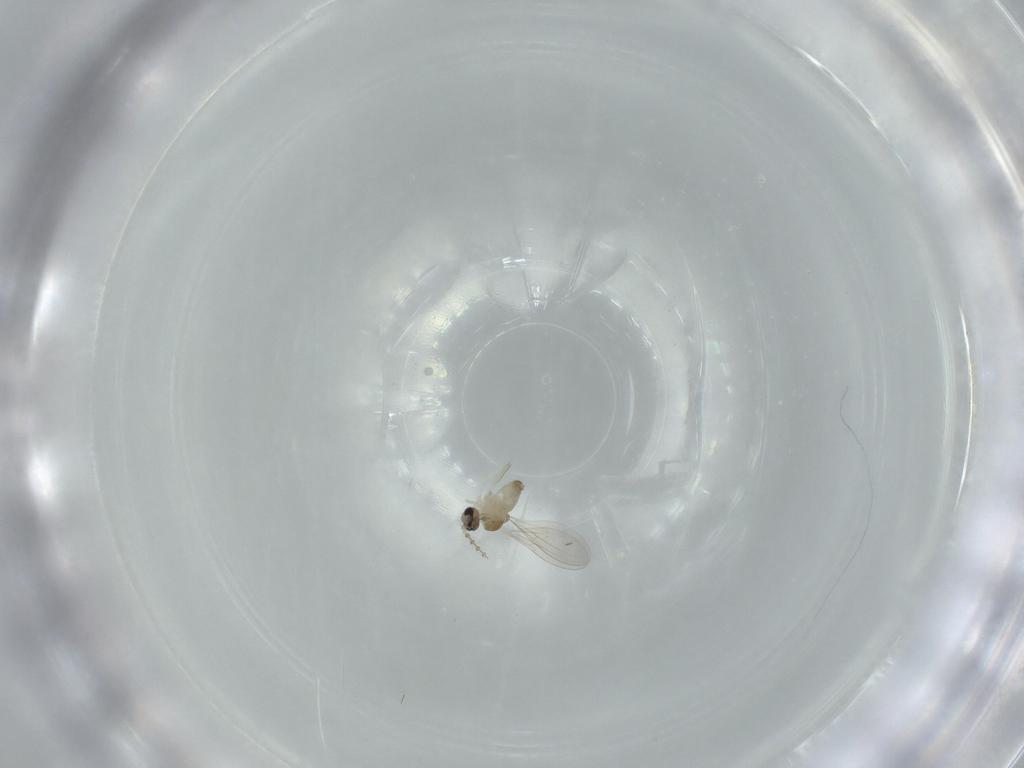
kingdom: Animalia
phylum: Arthropoda
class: Insecta
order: Diptera
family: Cecidomyiidae
